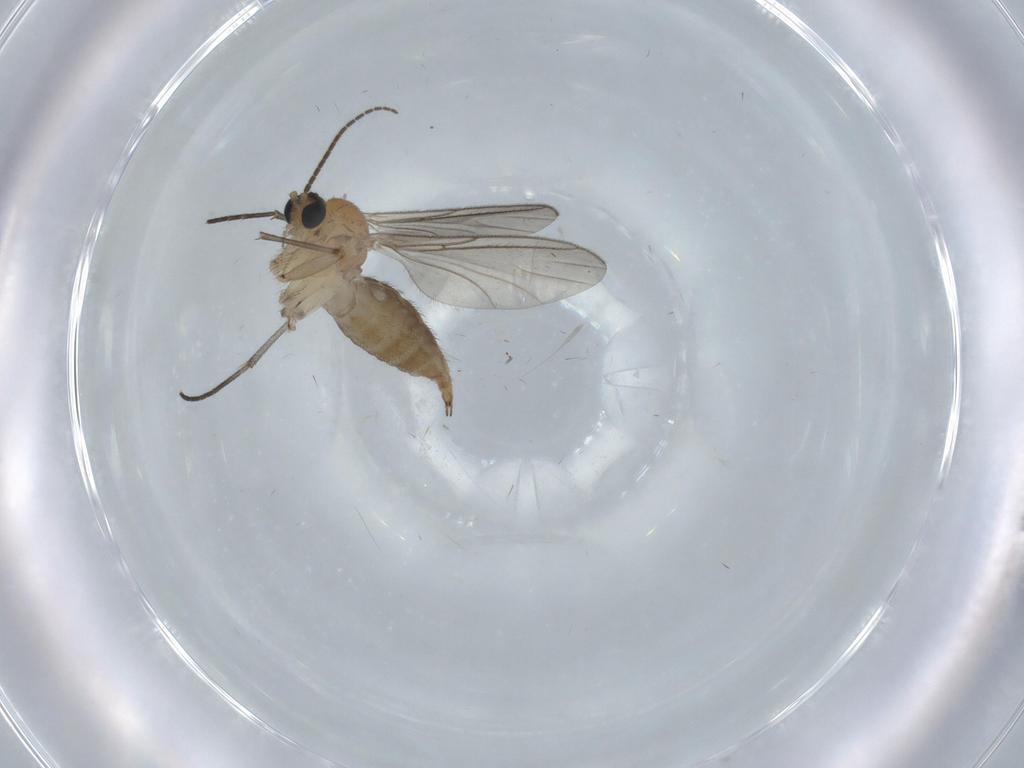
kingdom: Animalia
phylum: Arthropoda
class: Insecta
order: Diptera
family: Sciaridae
